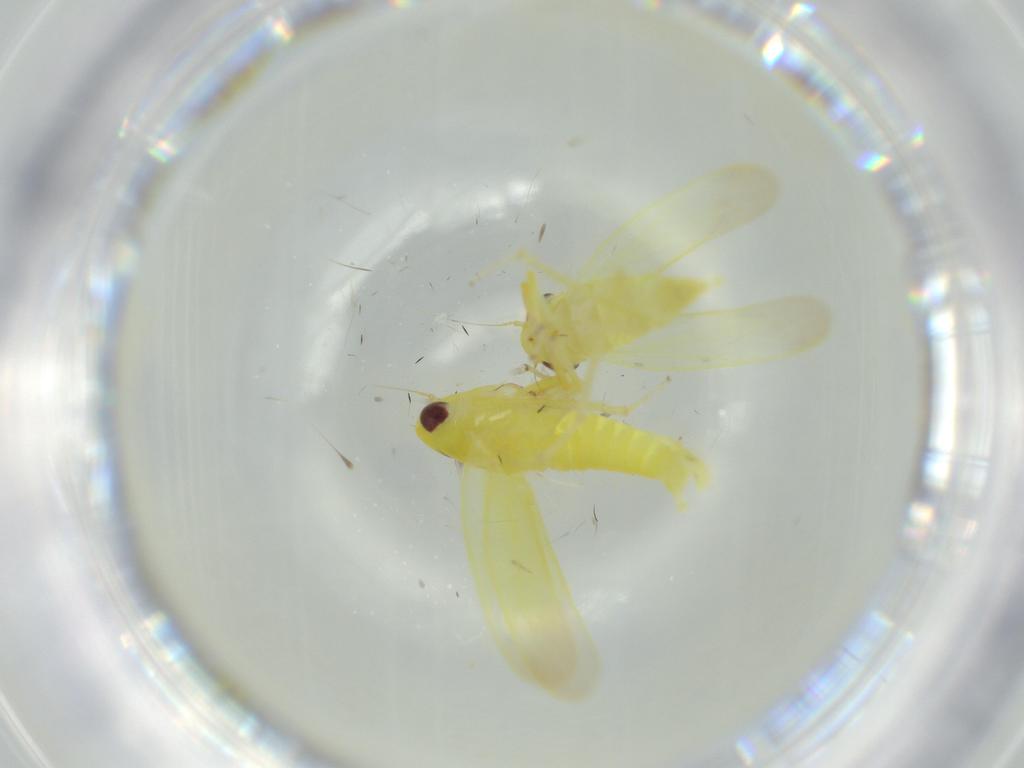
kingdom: Animalia
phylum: Arthropoda
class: Insecta
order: Hemiptera
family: Cicadellidae
